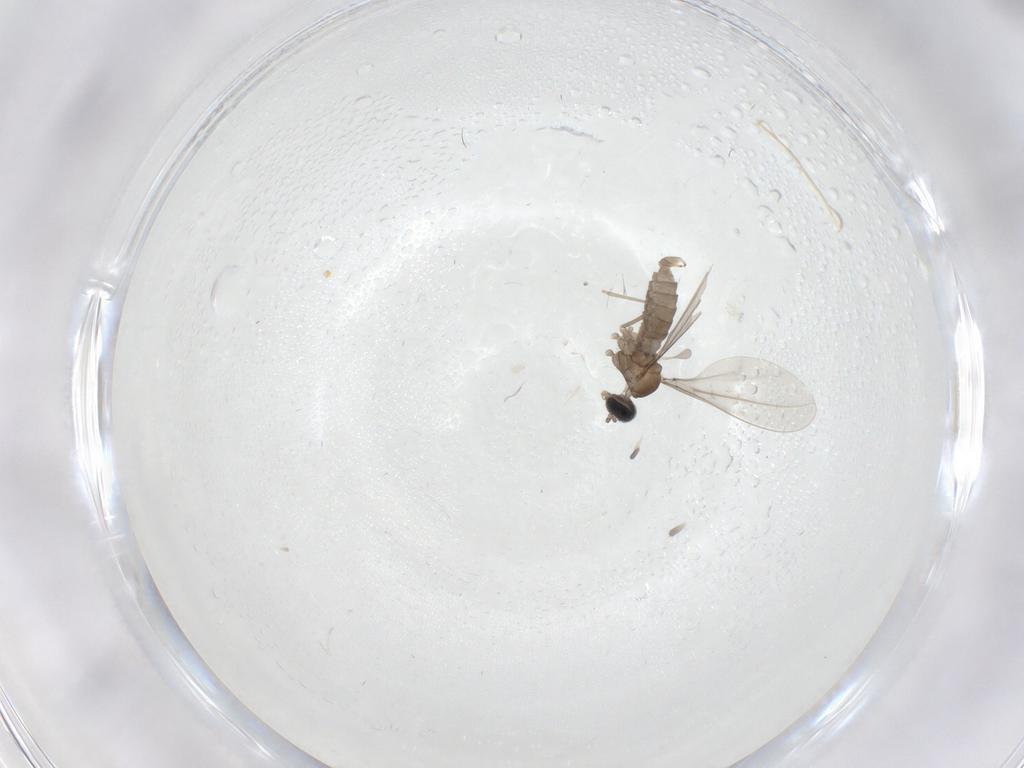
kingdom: Animalia
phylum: Arthropoda
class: Insecta
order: Diptera
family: Cecidomyiidae
